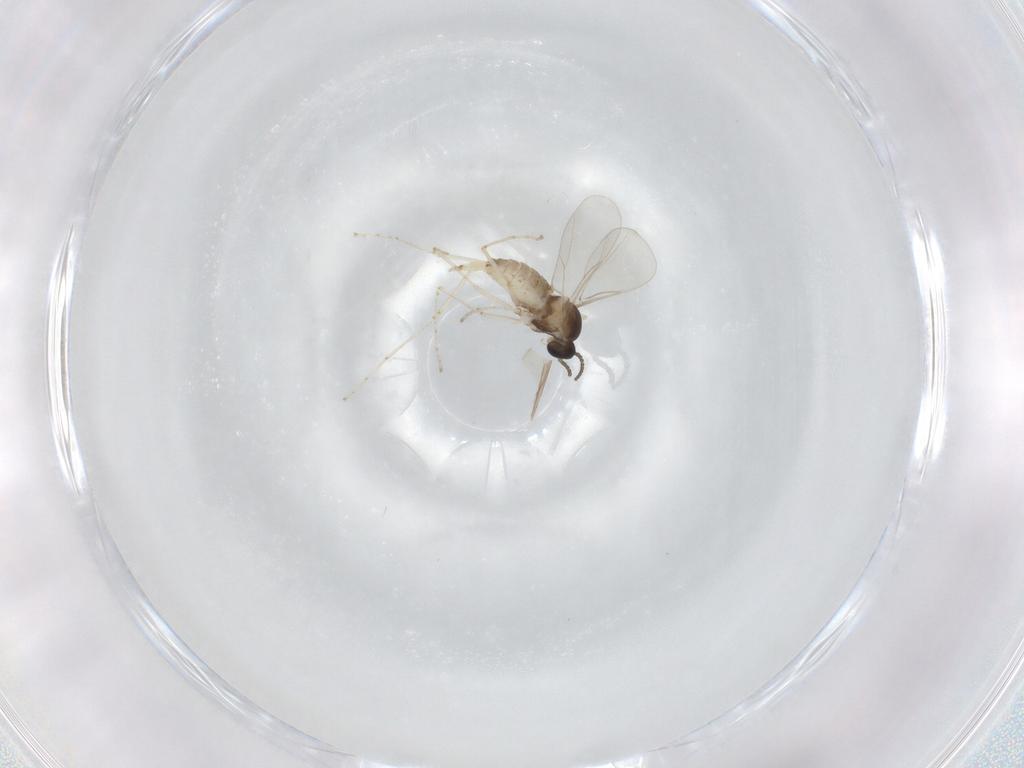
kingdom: Animalia
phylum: Arthropoda
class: Insecta
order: Diptera
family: Cecidomyiidae
